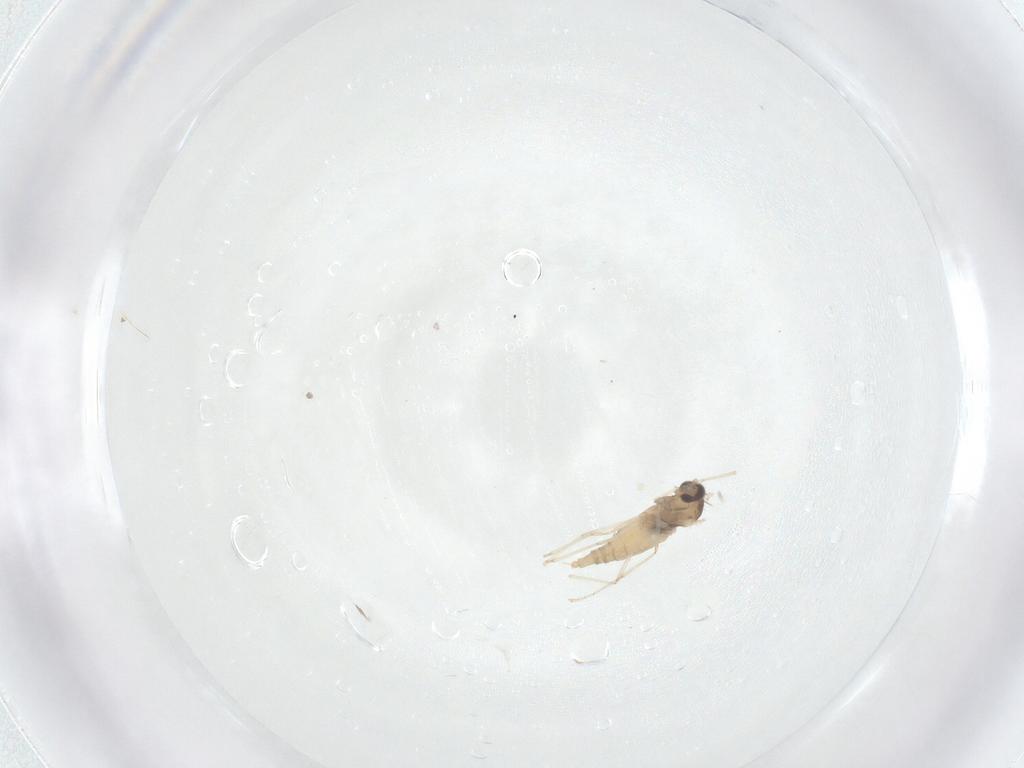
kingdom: Animalia
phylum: Arthropoda
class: Insecta
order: Diptera
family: Cecidomyiidae
